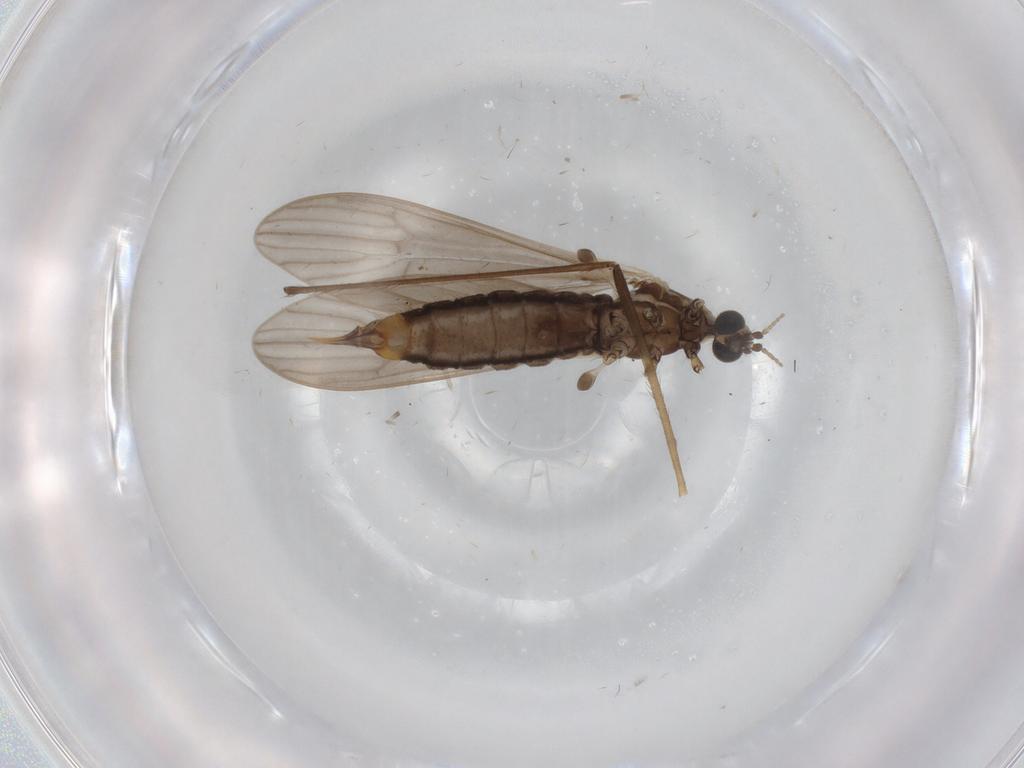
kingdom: Animalia
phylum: Arthropoda
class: Insecta
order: Diptera
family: Limoniidae
